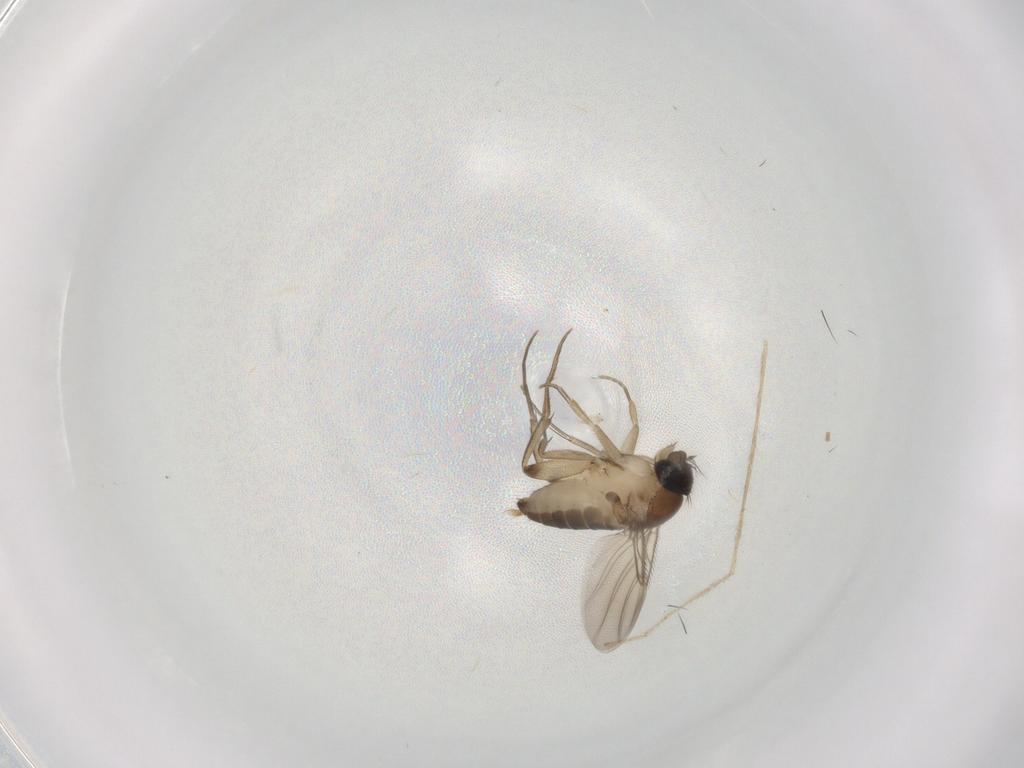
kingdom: Animalia
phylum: Arthropoda
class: Insecta
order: Diptera
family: Phoridae
